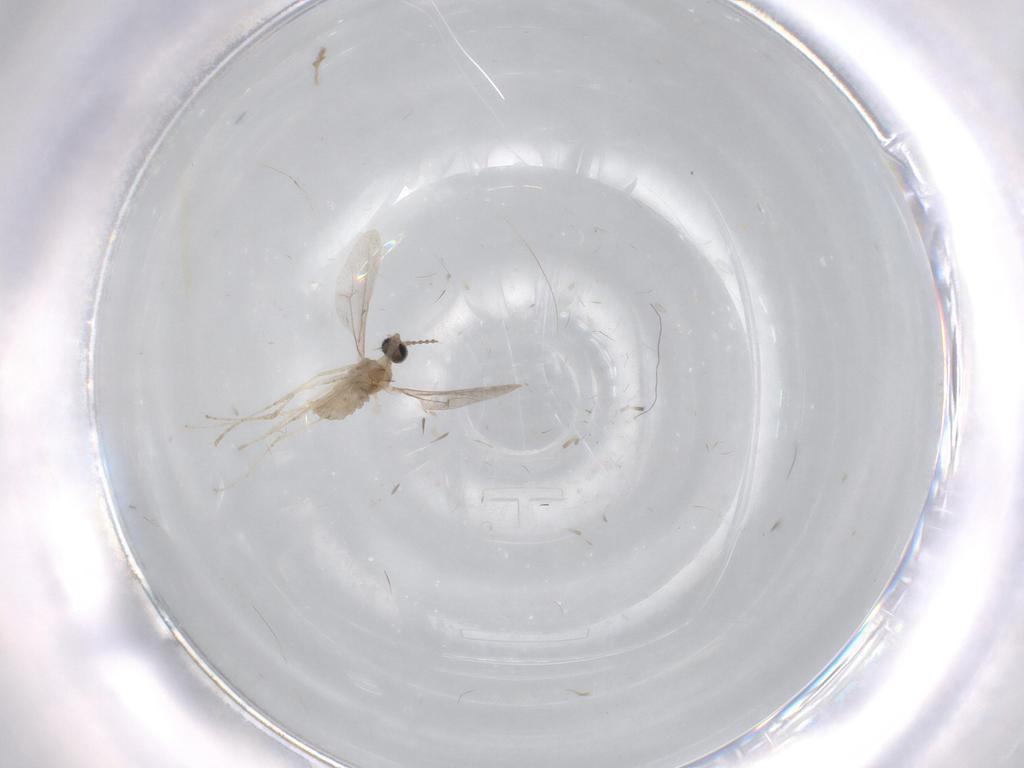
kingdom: Animalia
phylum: Arthropoda
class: Insecta
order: Diptera
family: Cecidomyiidae
